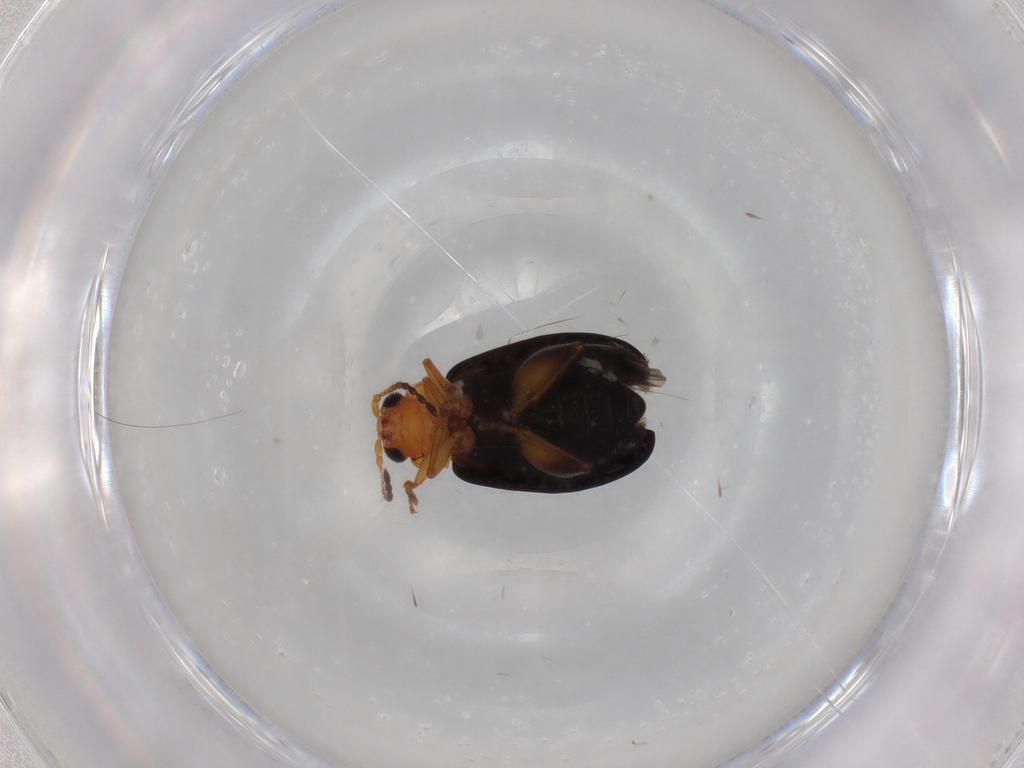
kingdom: Animalia
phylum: Arthropoda
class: Insecta
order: Coleoptera
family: Chrysomelidae
